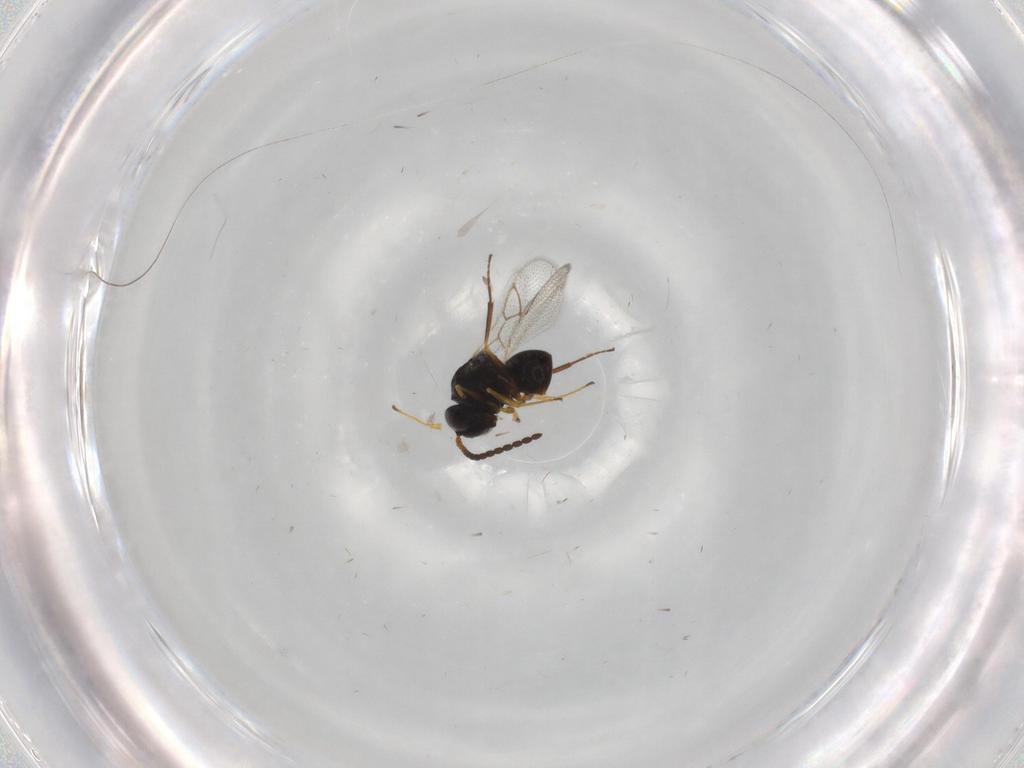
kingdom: Animalia
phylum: Arthropoda
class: Insecta
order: Hymenoptera
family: Figitidae
